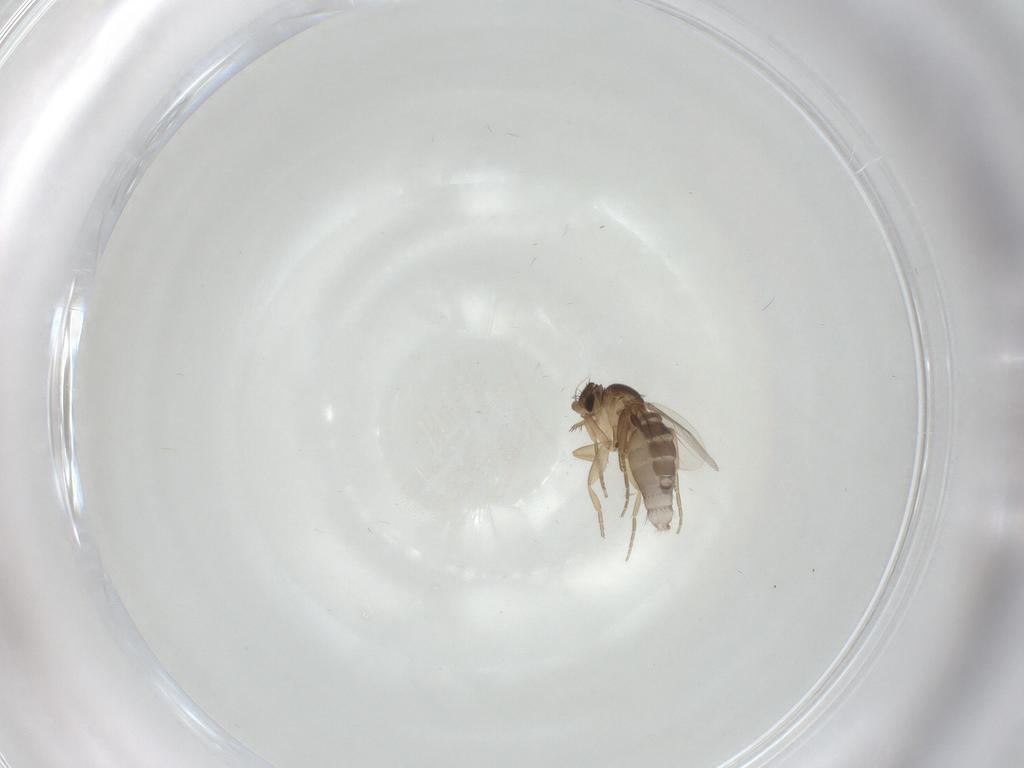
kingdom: Animalia
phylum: Arthropoda
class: Insecta
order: Diptera
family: Phoridae
